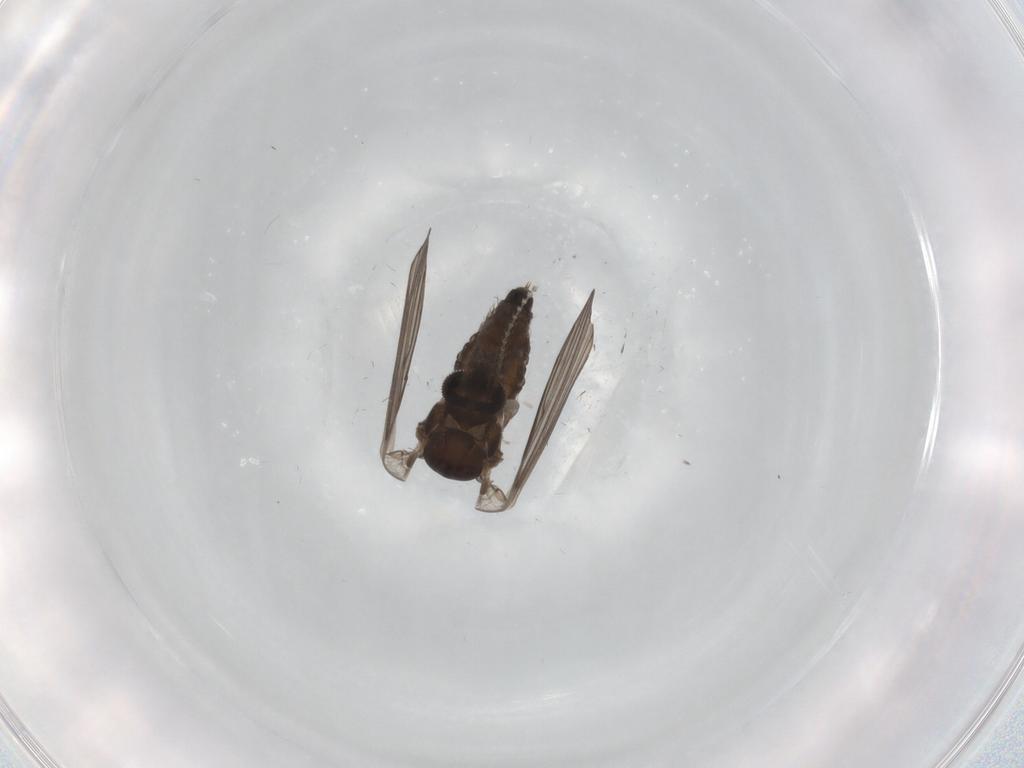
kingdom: Animalia
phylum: Arthropoda
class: Insecta
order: Diptera
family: Psychodidae
